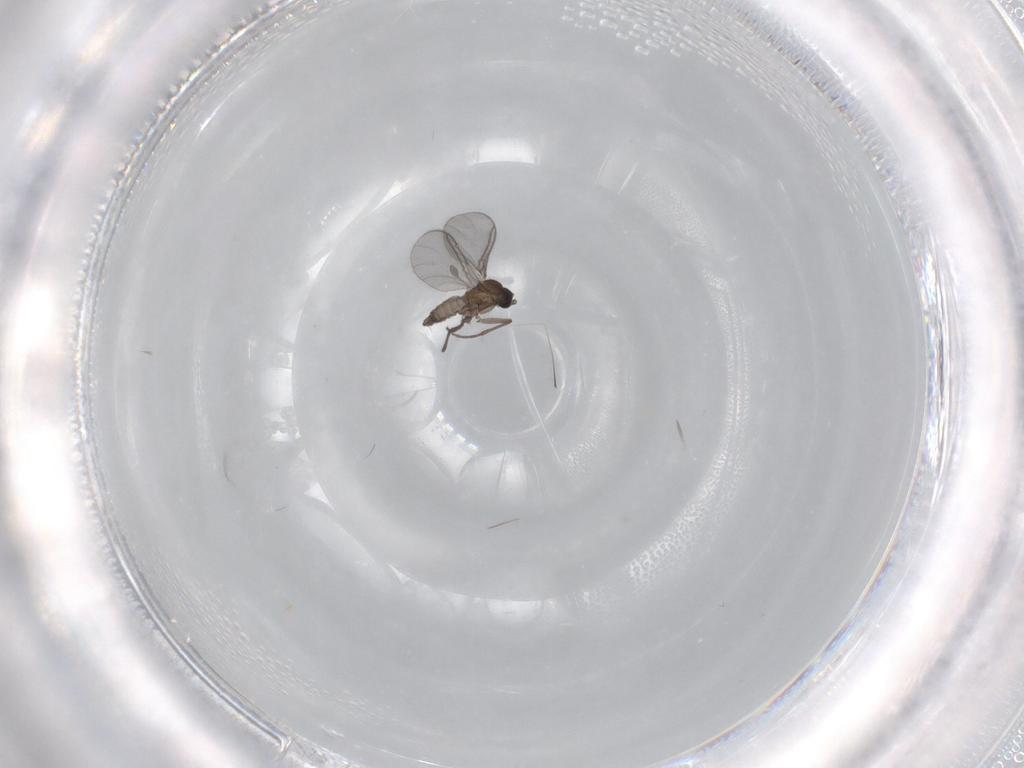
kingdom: Animalia
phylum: Arthropoda
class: Insecta
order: Diptera
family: Sciaridae
